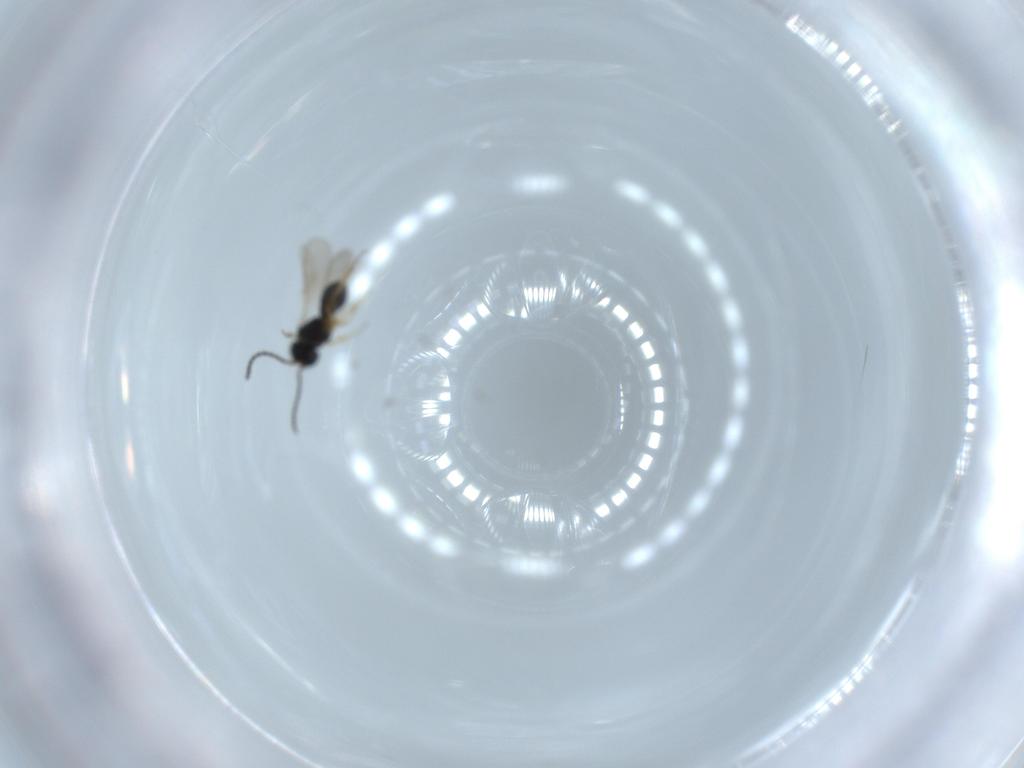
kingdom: Animalia
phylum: Arthropoda
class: Insecta
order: Hymenoptera
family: Scelionidae
